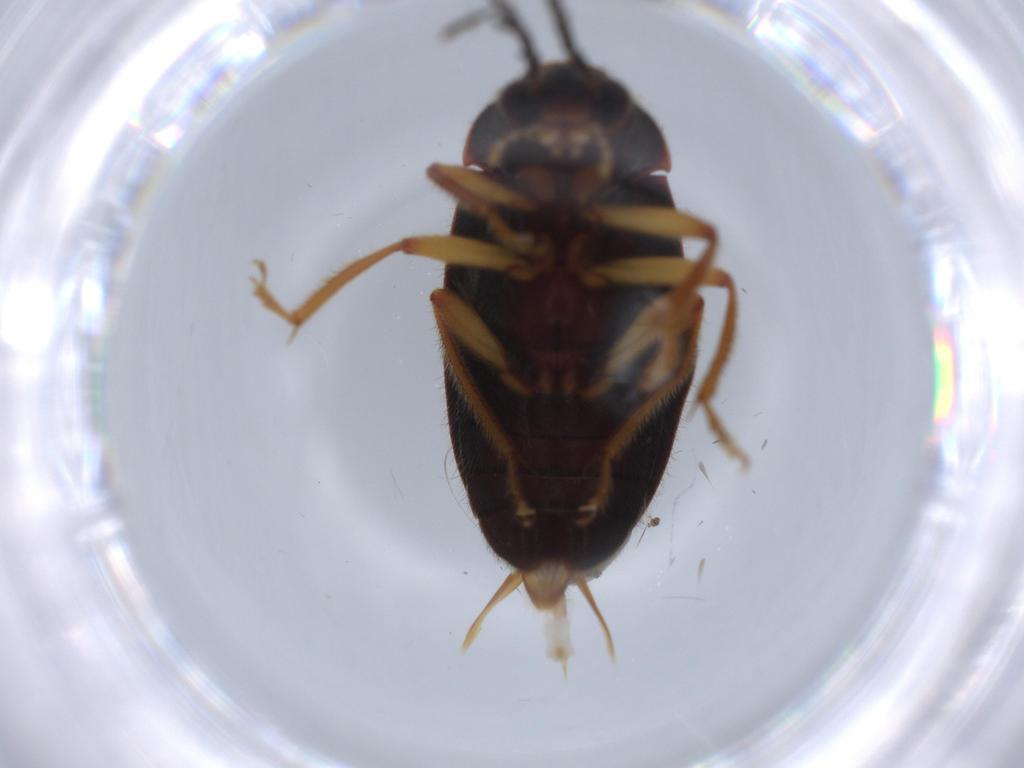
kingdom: Animalia
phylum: Arthropoda
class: Insecta
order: Coleoptera
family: Ptilodactylidae
